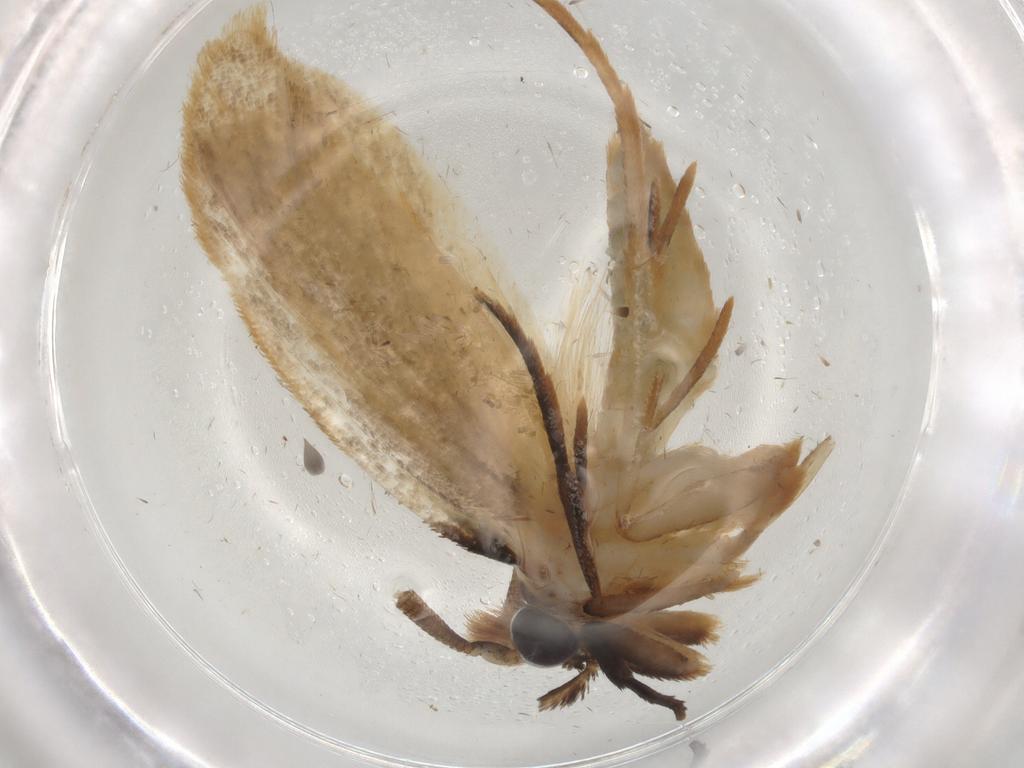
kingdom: Animalia
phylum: Arthropoda
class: Insecta
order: Lepidoptera
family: Tineidae
